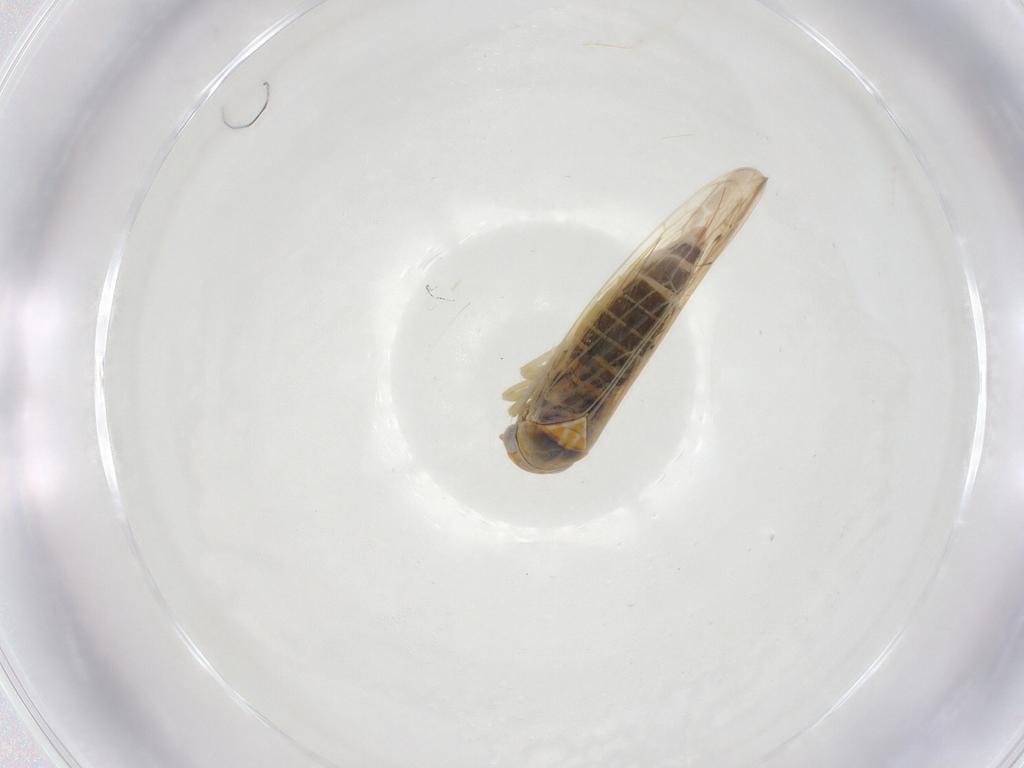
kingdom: Animalia
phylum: Arthropoda
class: Insecta
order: Hemiptera
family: Cicadellidae
